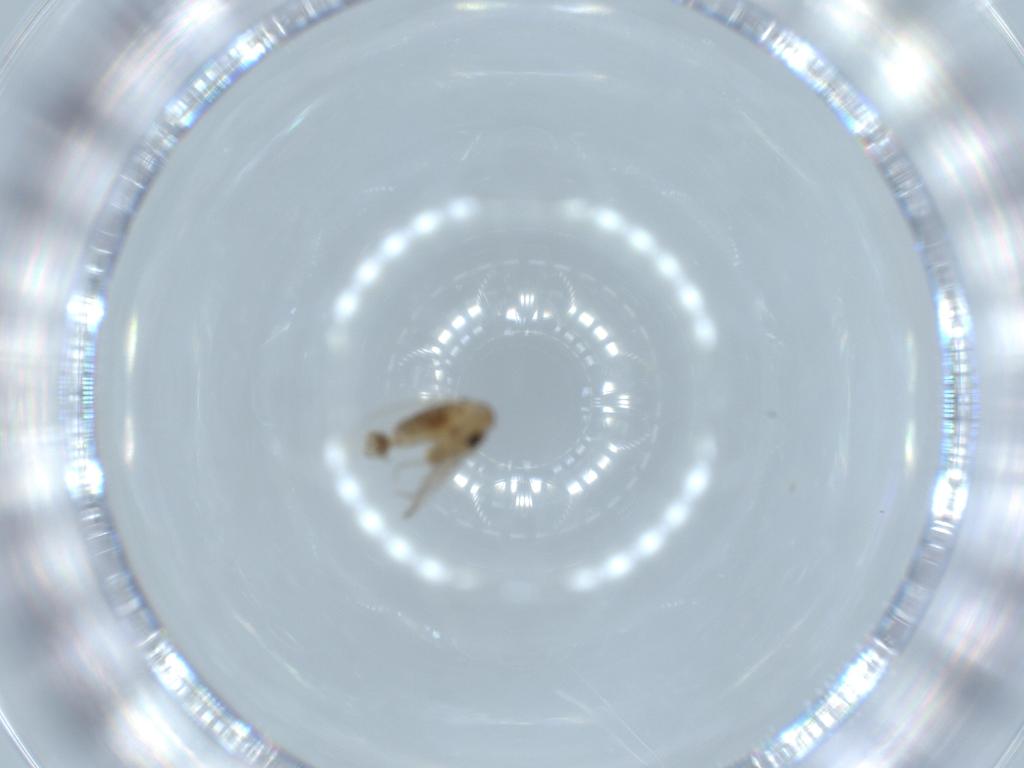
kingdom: Animalia
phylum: Arthropoda
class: Insecta
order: Diptera
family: Psychodidae
